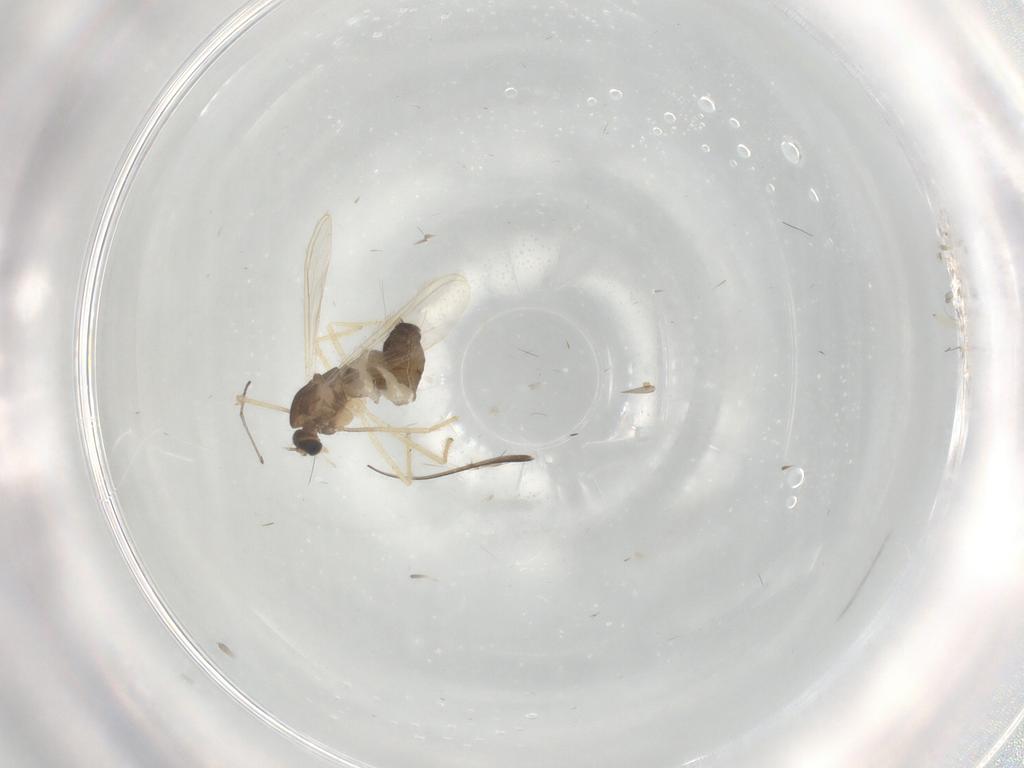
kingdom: Animalia
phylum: Arthropoda
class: Insecta
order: Diptera
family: Chironomidae
